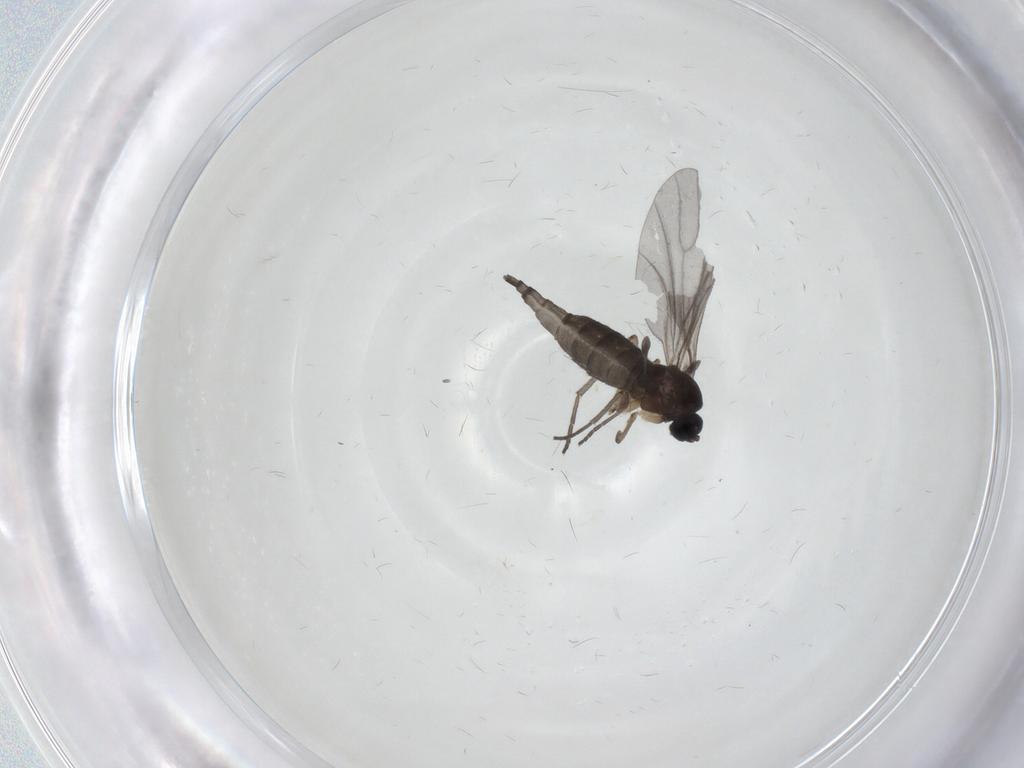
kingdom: Animalia
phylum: Arthropoda
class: Insecta
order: Diptera
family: Sciaridae
